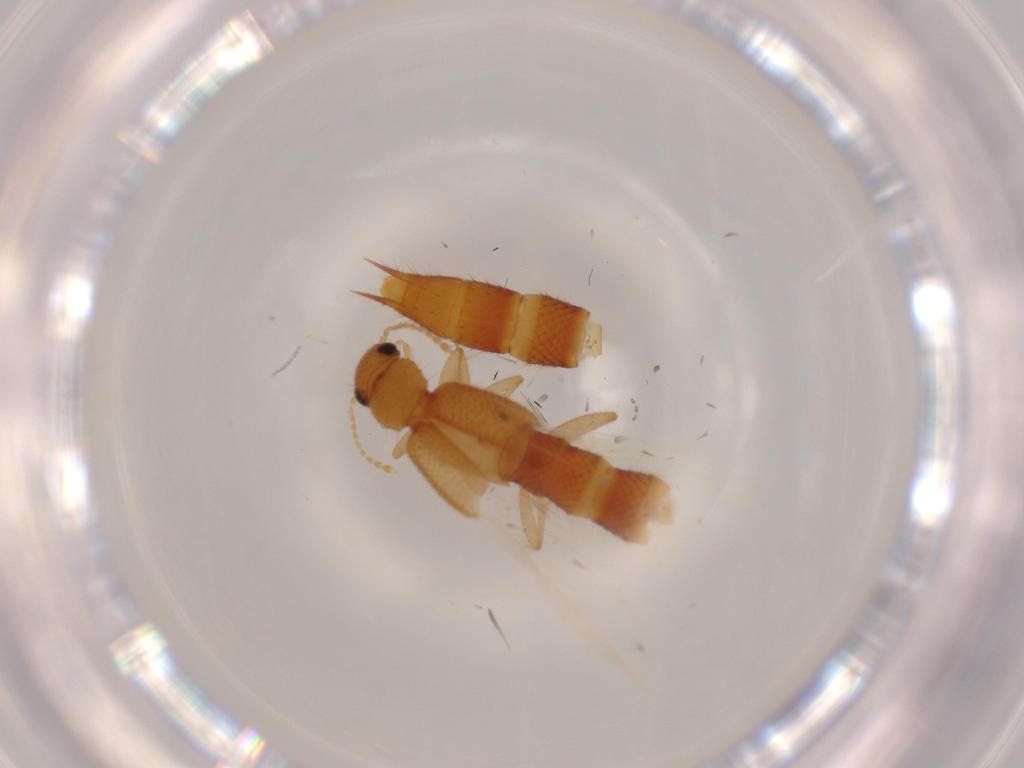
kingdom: Animalia
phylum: Arthropoda
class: Insecta
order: Coleoptera
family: Staphylinidae
